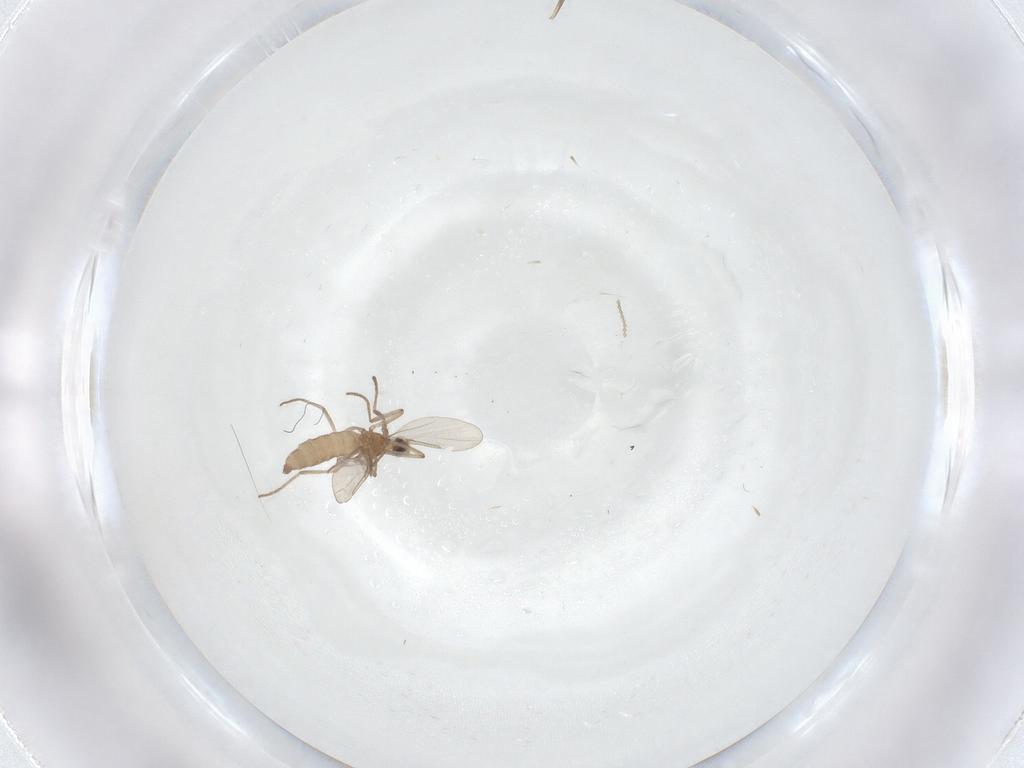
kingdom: Animalia
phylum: Arthropoda
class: Insecta
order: Diptera
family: Cecidomyiidae
